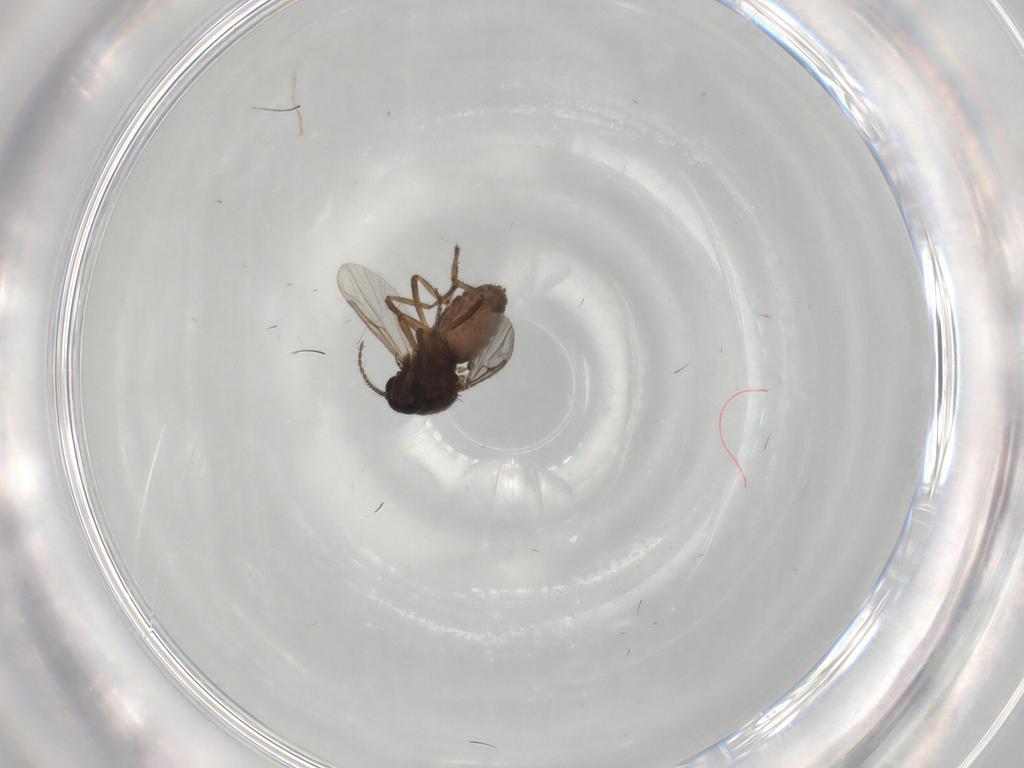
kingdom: Animalia
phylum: Arthropoda
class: Insecta
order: Diptera
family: Ceratopogonidae
